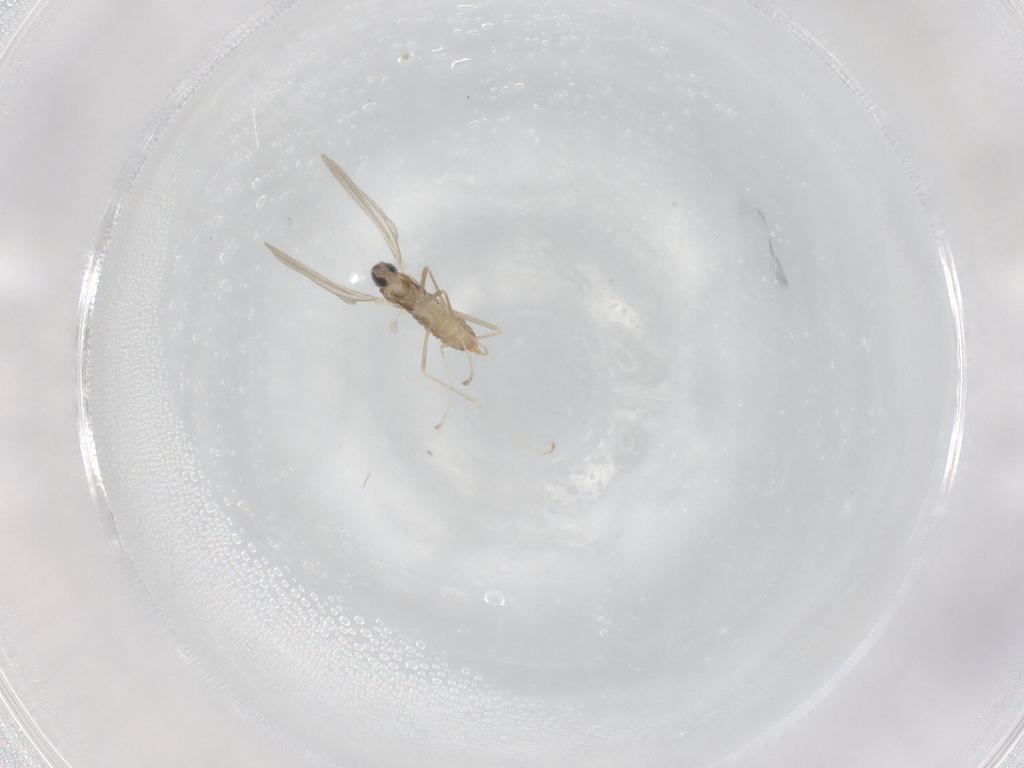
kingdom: Animalia
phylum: Arthropoda
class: Insecta
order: Diptera
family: Cecidomyiidae
